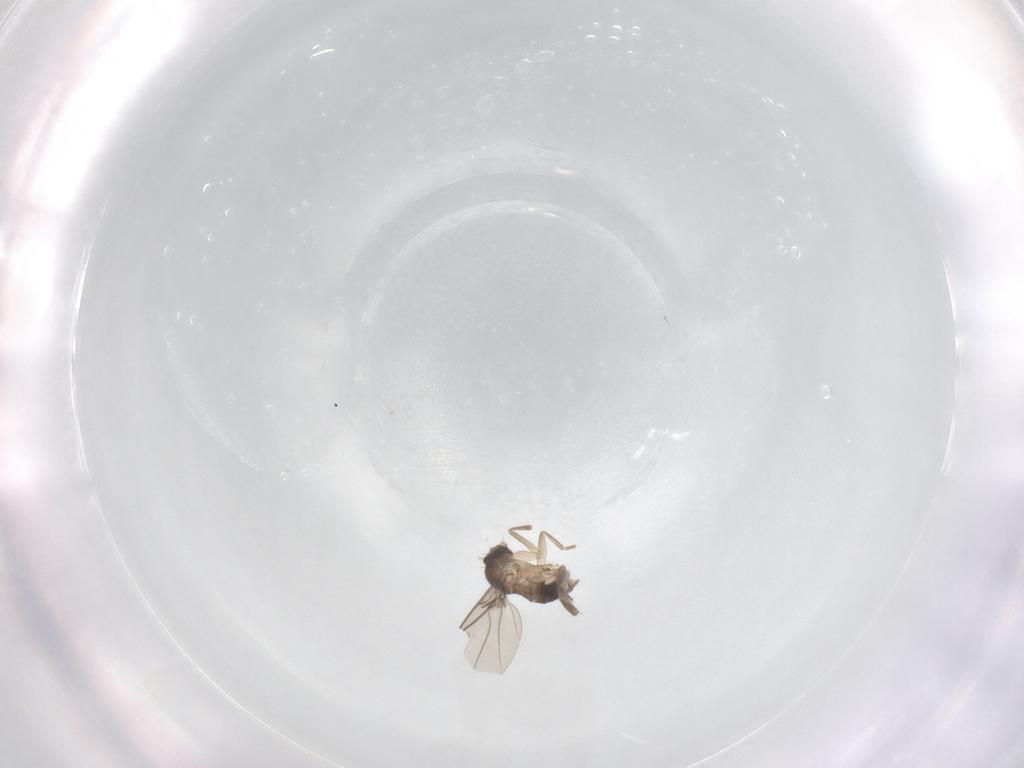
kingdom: Animalia
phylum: Arthropoda
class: Insecta
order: Diptera
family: Phoridae
